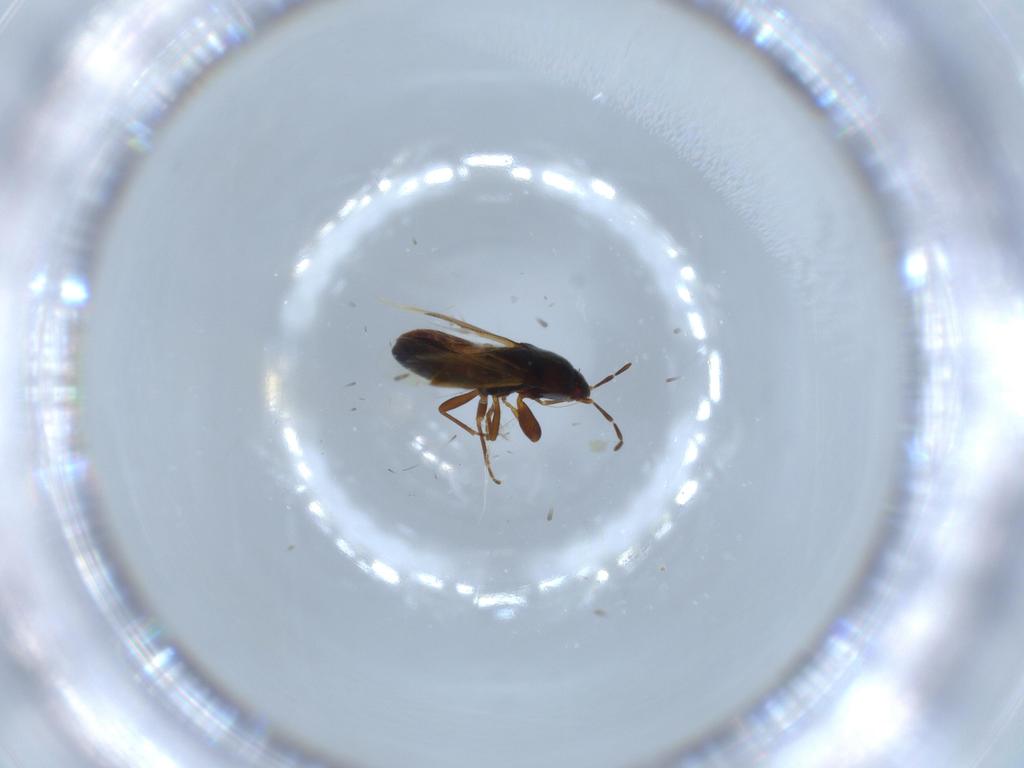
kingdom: Animalia
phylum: Arthropoda
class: Insecta
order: Hemiptera
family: Rhyparochromidae
